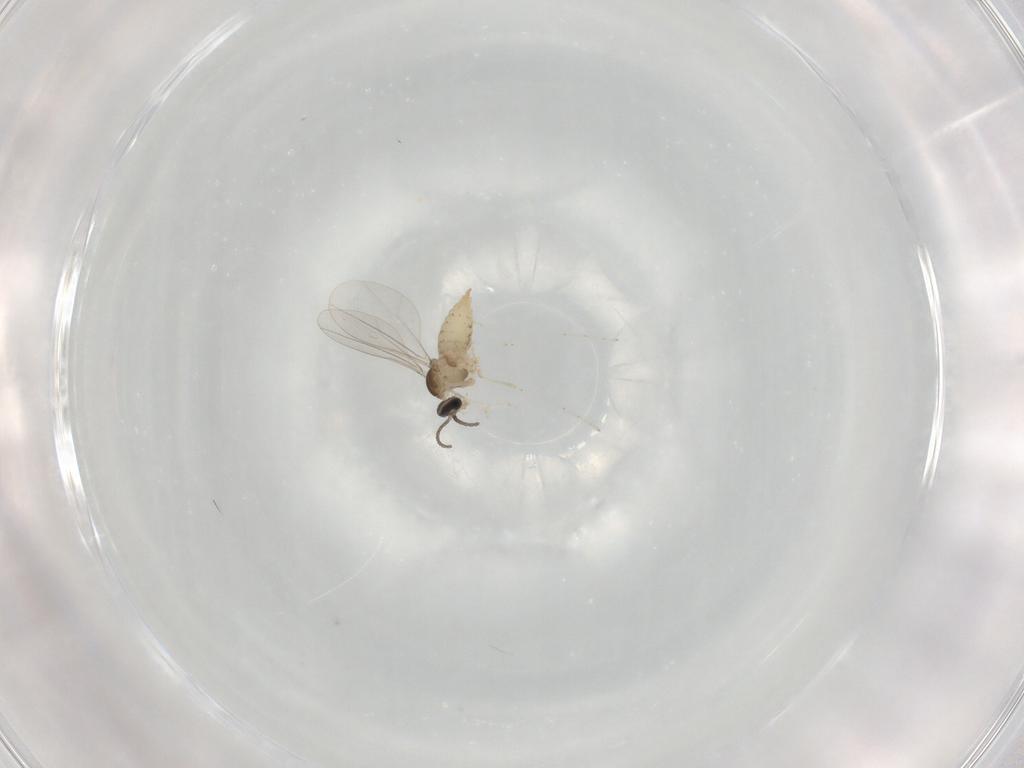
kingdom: Animalia
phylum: Arthropoda
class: Insecta
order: Diptera
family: Cecidomyiidae
